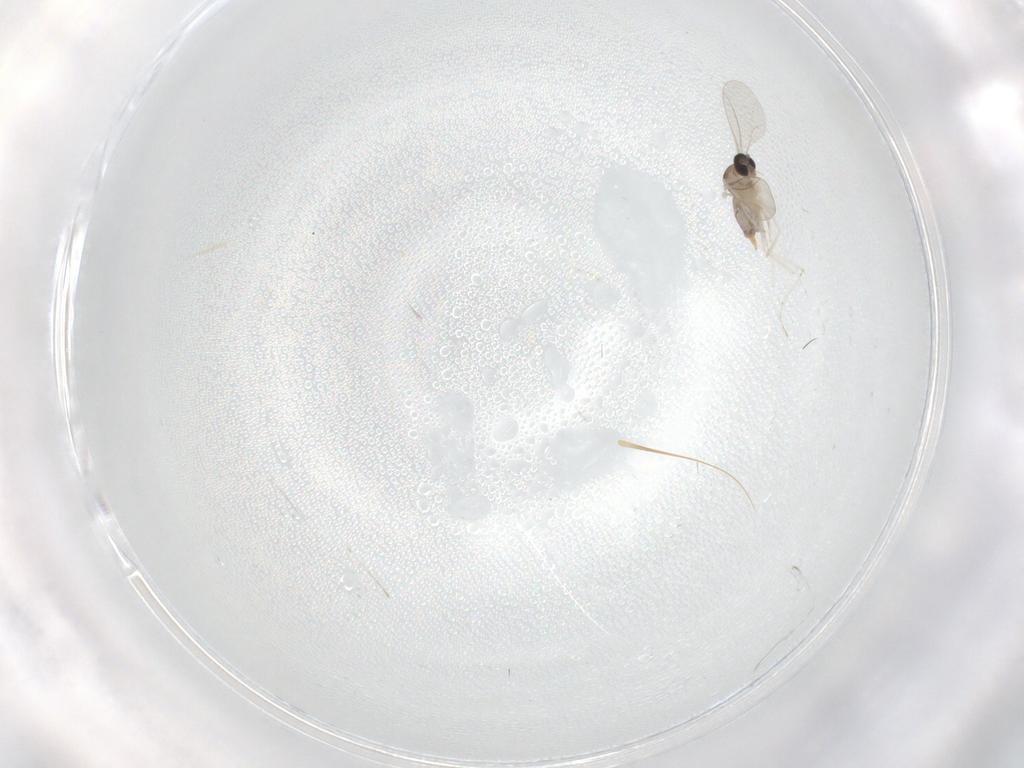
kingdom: Animalia
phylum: Arthropoda
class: Insecta
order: Diptera
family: Cecidomyiidae
